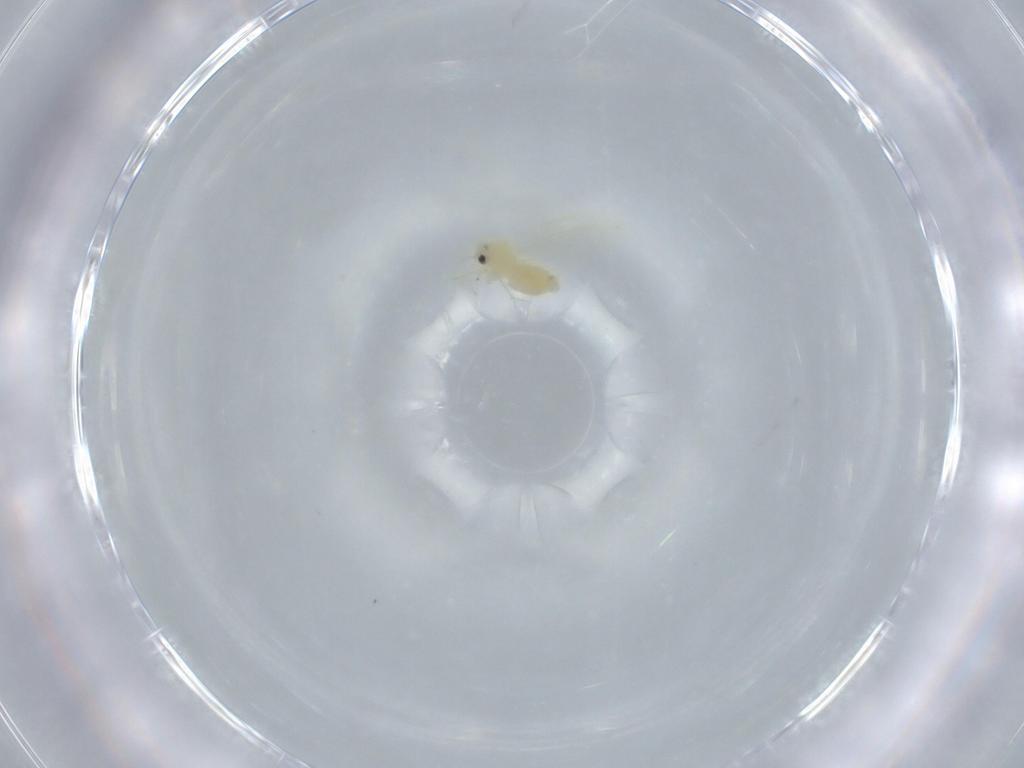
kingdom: Animalia
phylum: Arthropoda
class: Insecta
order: Hemiptera
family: Aleyrodidae
